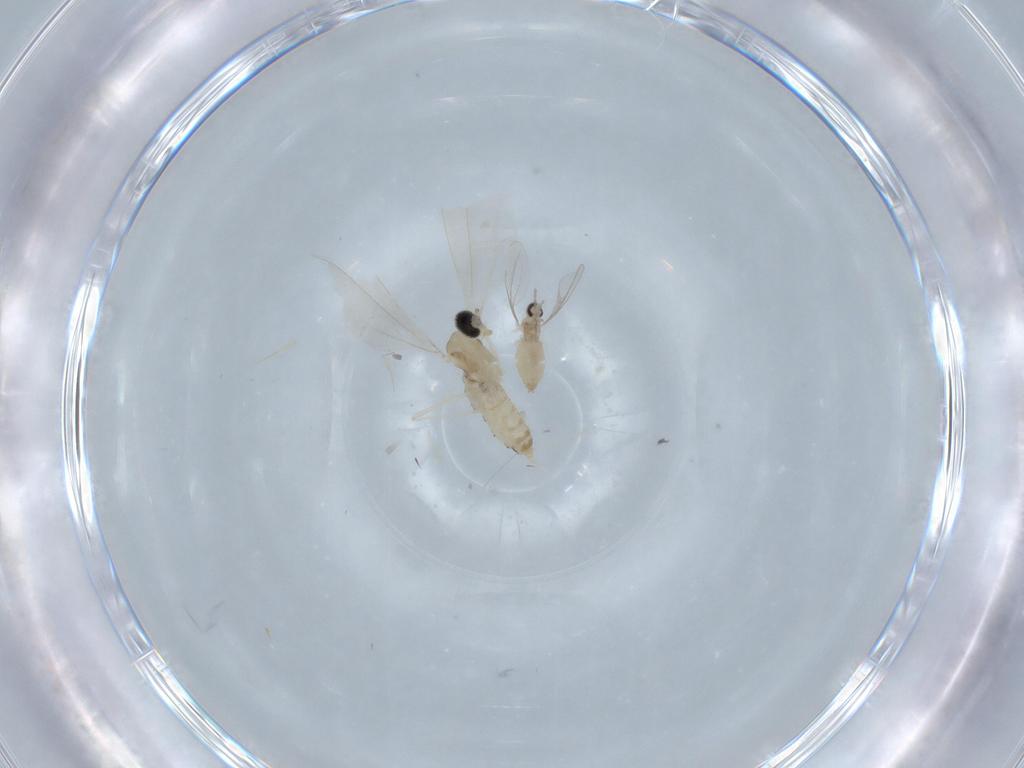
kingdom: Animalia
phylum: Arthropoda
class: Insecta
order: Diptera
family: Cecidomyiidae
